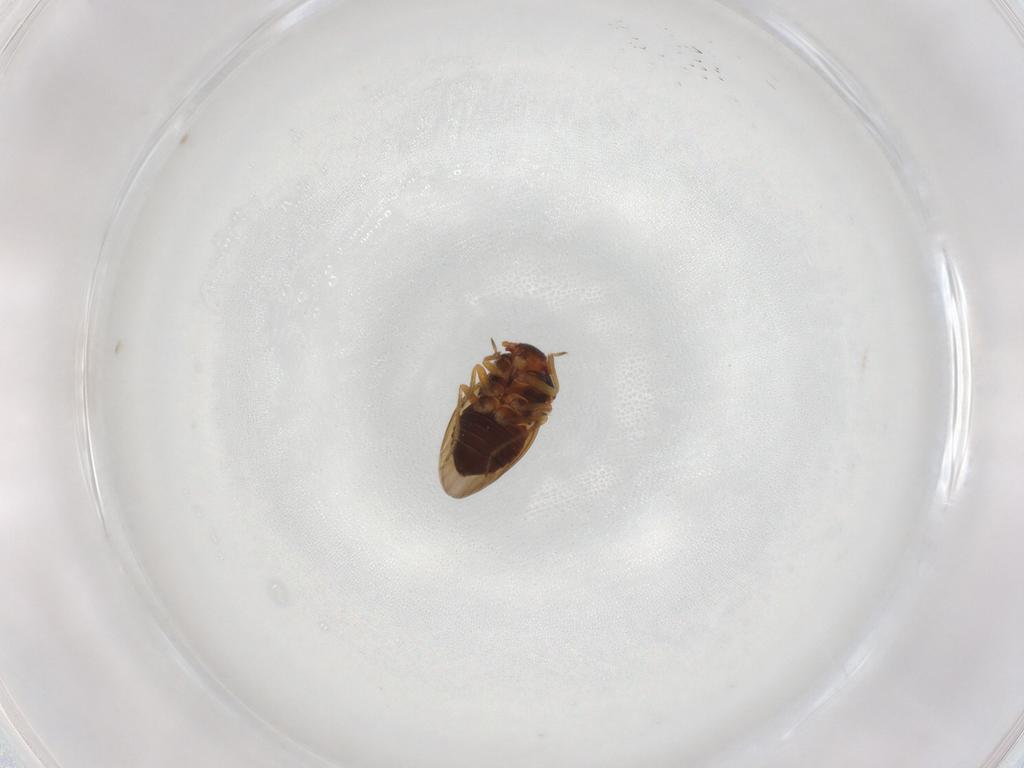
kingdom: Animalia
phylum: Arthropoda
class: Insecta
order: Hemiptera
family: Schizopteridae
